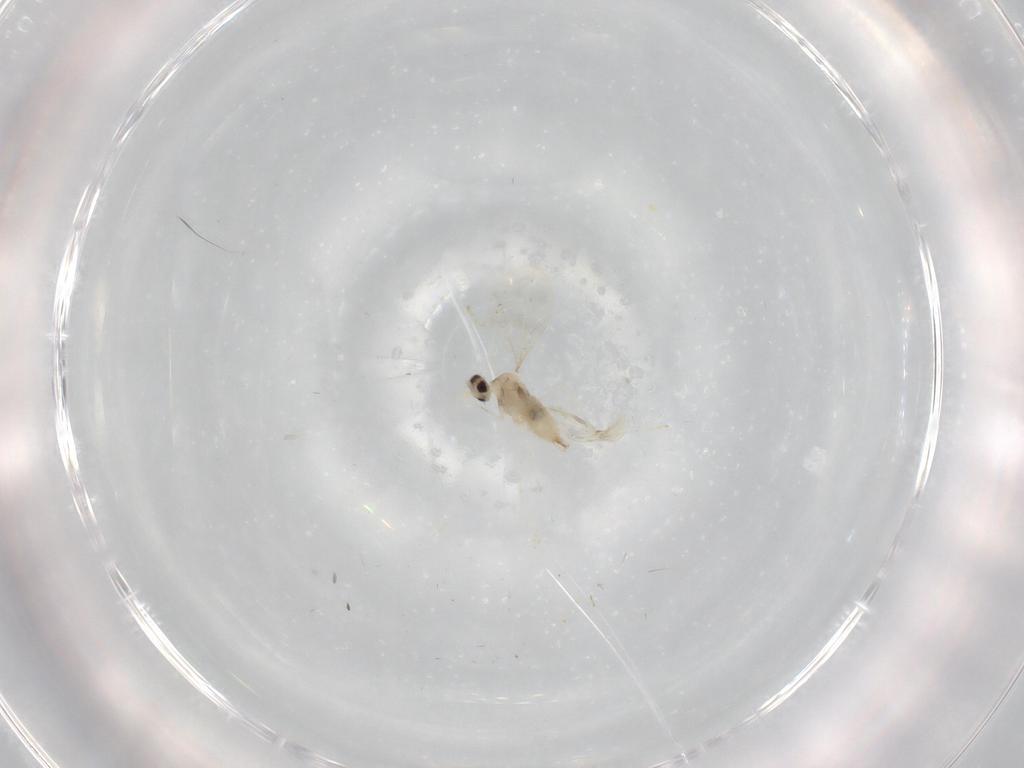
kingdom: Animalia
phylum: Arthropoda
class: Insecta
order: Diptera
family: Cecidomyiidae
